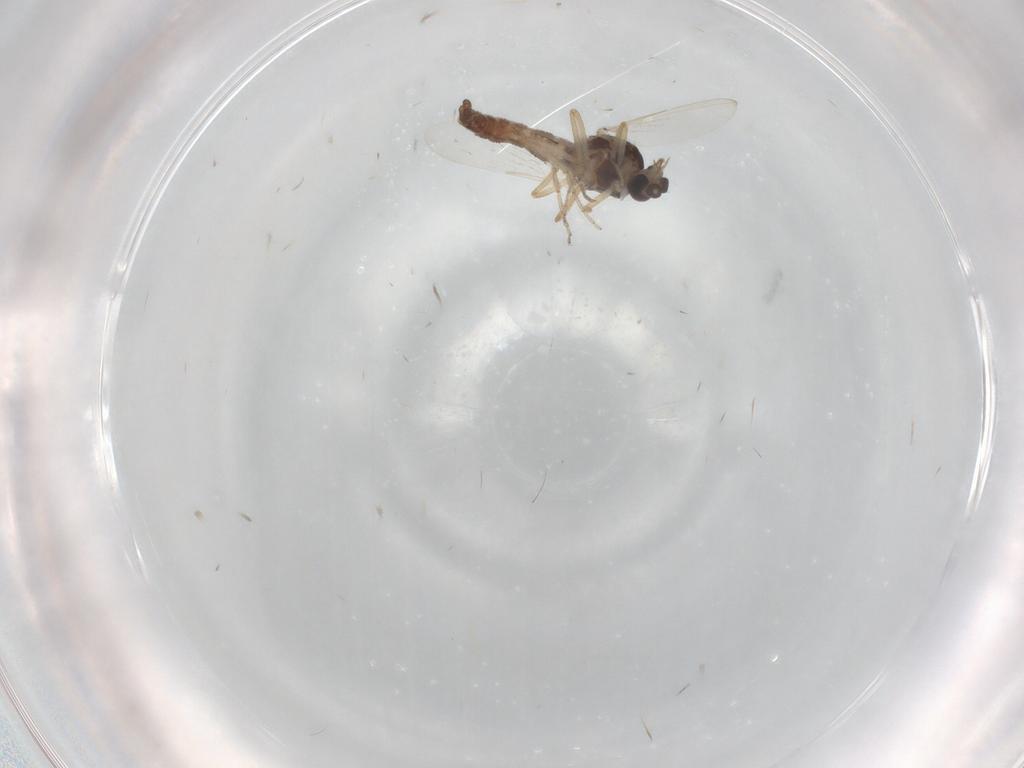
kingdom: Animalia
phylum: Arthropoda
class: Insecta
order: Diptera
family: Ceratopogonidae
